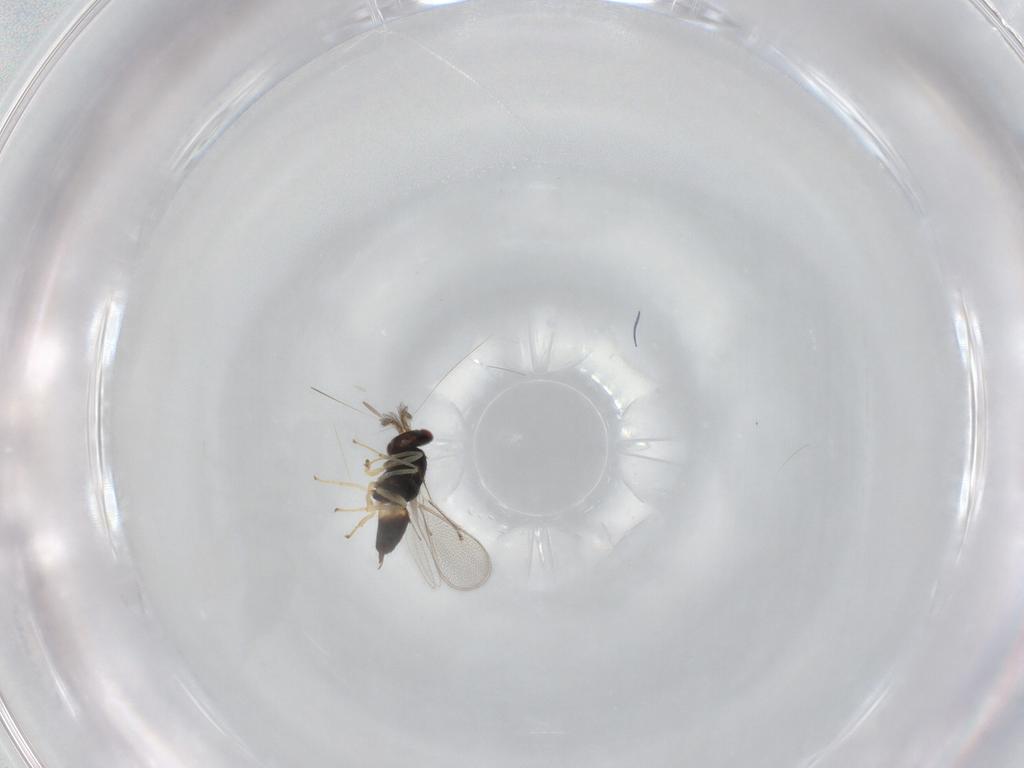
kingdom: Animalia
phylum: Arthropoda
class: Insecta
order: Hymenoptera
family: Eulophidae
